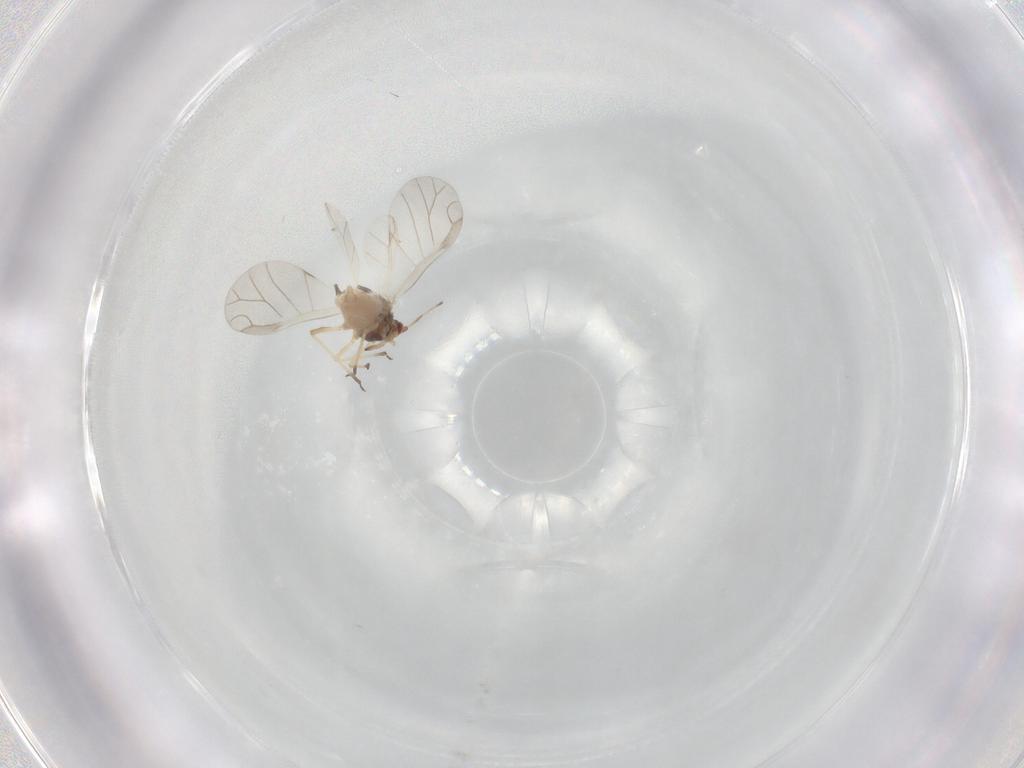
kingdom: Animalia
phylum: Arthropoda
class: Insecta
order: Hemiptera
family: Aphididae
